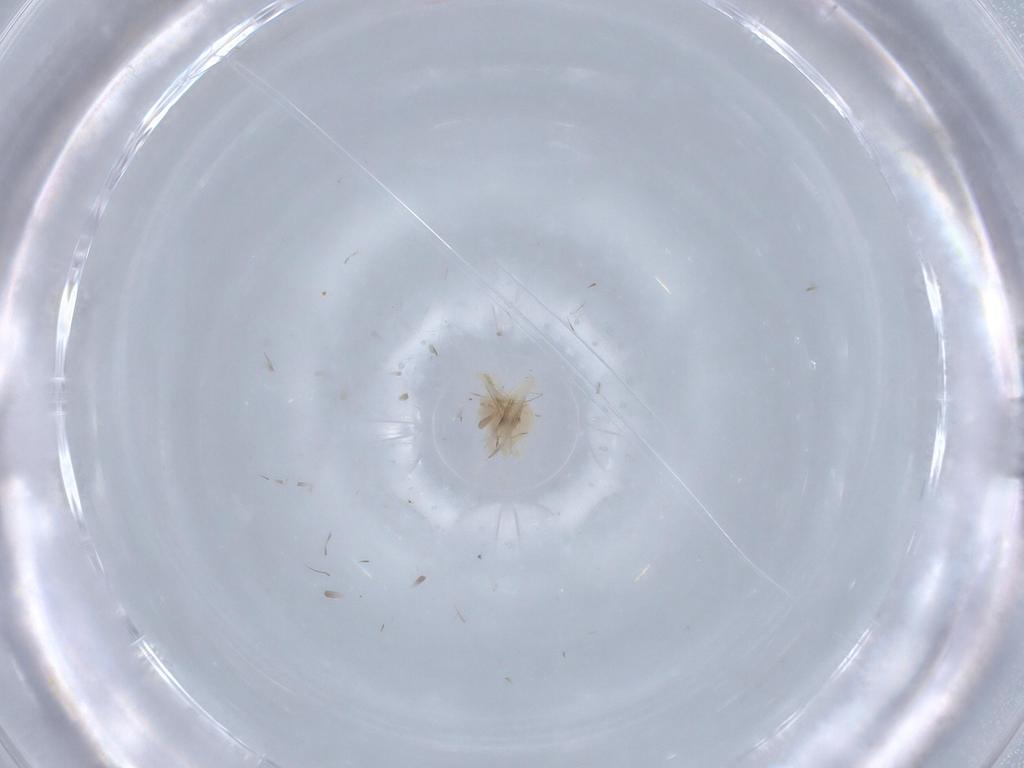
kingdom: Animalia
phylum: Arthropoda
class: Arachnida
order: Trombidiformes
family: Anystidae
